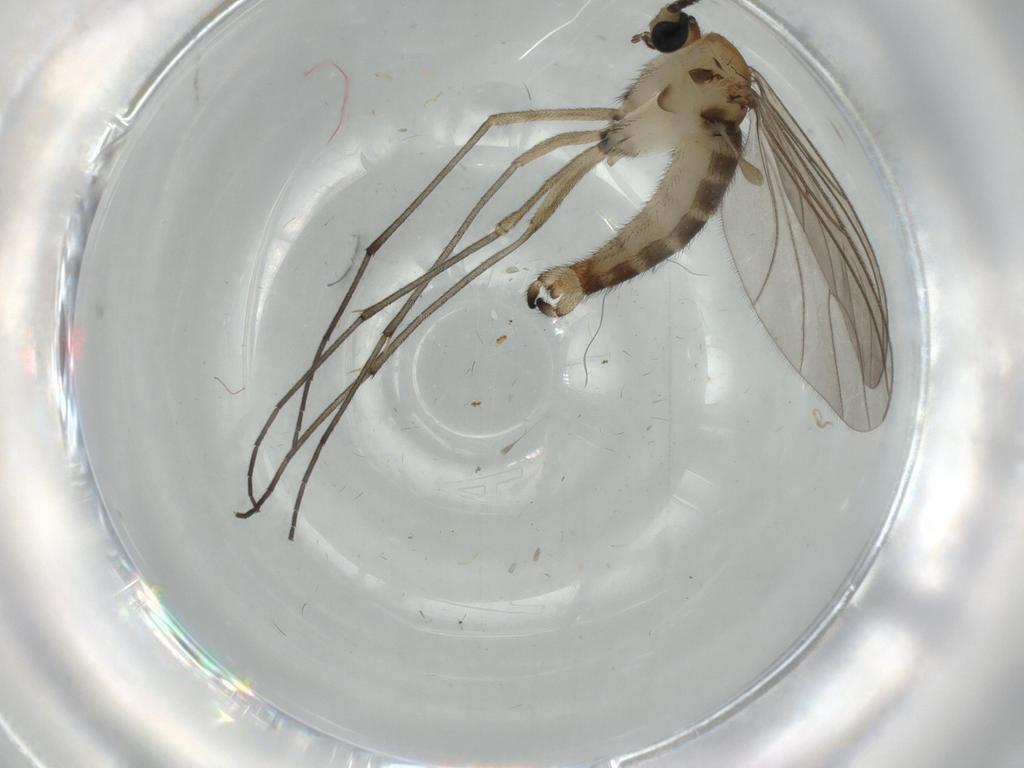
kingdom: Animalia
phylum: Arthropoda
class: Insecta
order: Diptera
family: Sciaridae
